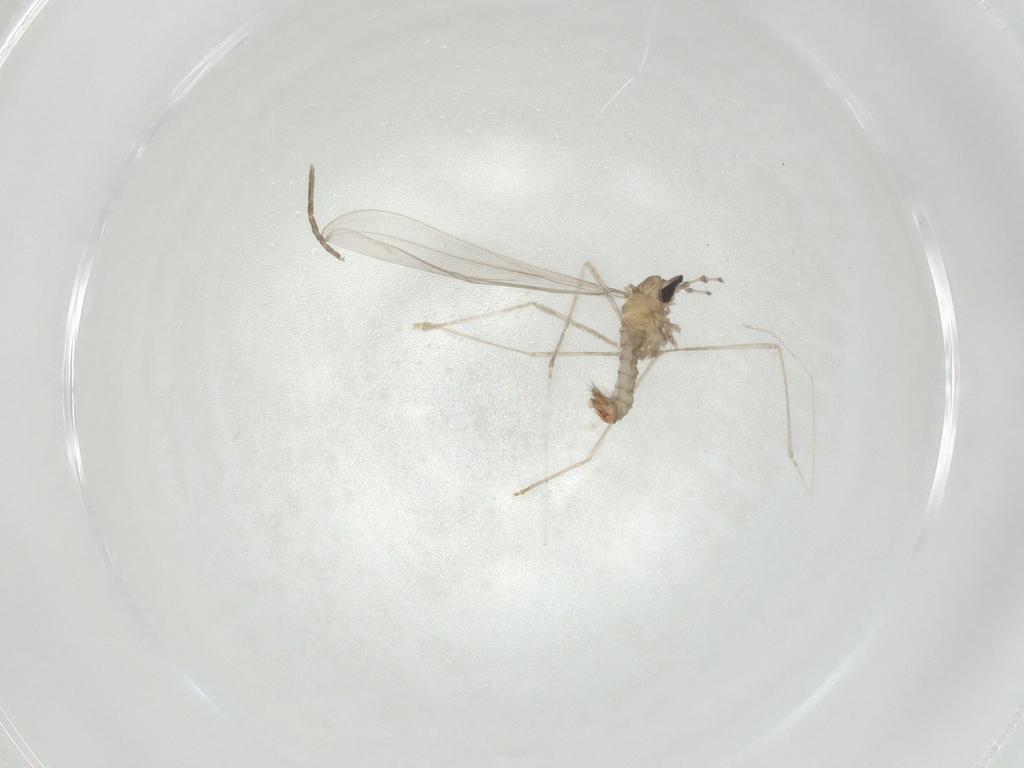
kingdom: Animalia
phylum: Arthropoda
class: Insecta
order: Diptera
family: Cecidomyiidae
